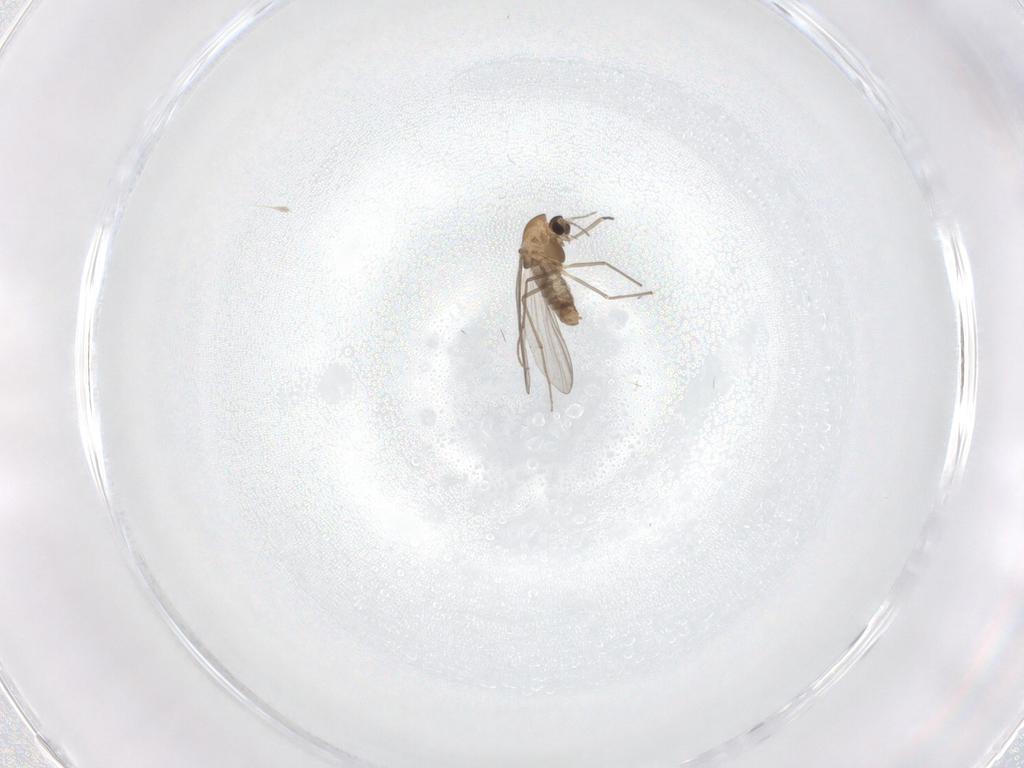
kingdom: Animalia
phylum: Arthropoda
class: Insecta
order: Diptera
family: Cecidomyiidae
